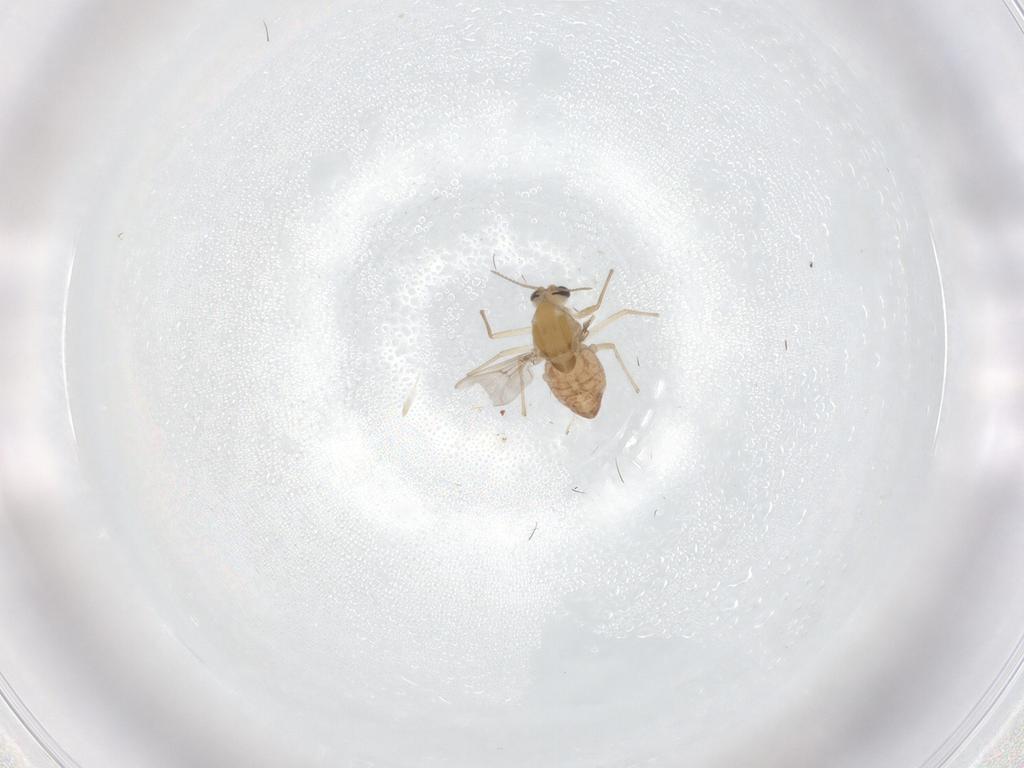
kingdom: Animalia
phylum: Arthropoda
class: Insecta
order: Diptera
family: Chironomidae
